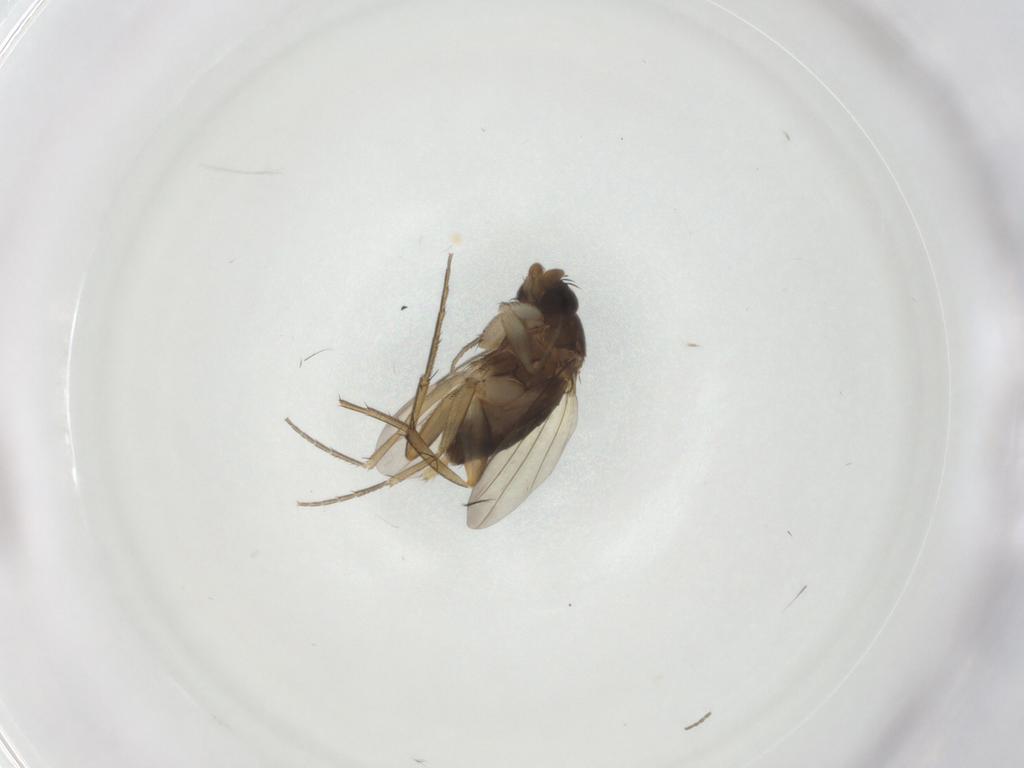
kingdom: Animalia
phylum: Arthropoda
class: Insecta
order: Diptera
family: Phoridae
